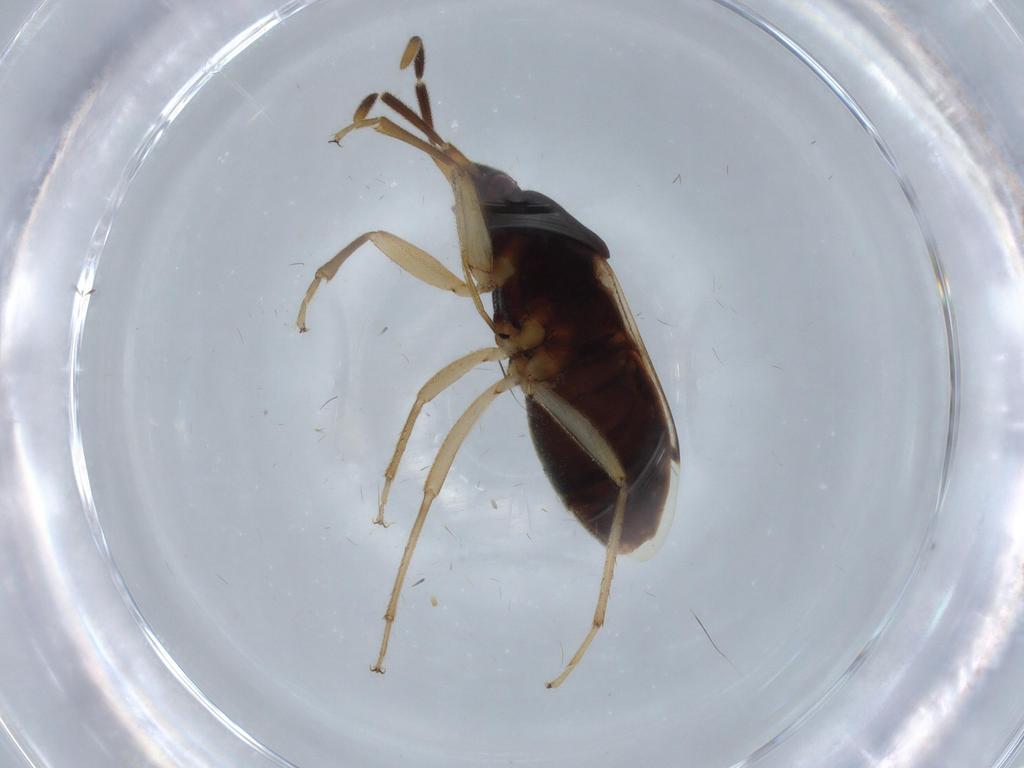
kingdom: Animalia
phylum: Arthropoda
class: Insecta
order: Hemiptera
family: Rhyparochromidae
